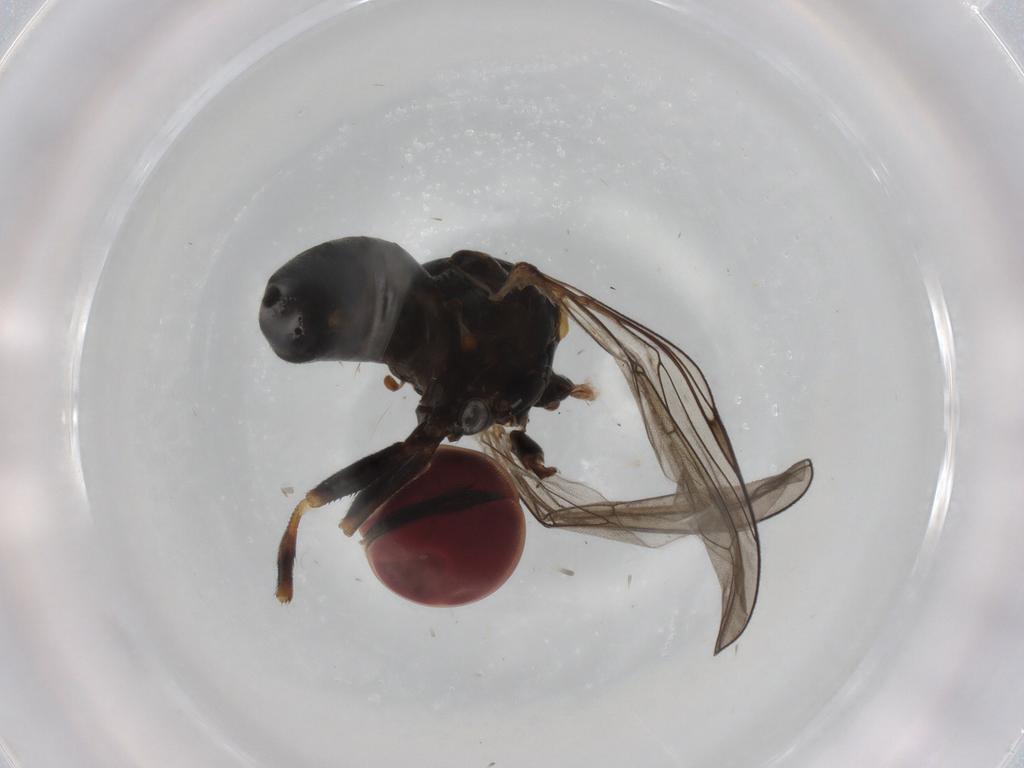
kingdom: Animalia
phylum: Arthropoda
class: Insecta
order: Diptera
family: Pipunculidae
